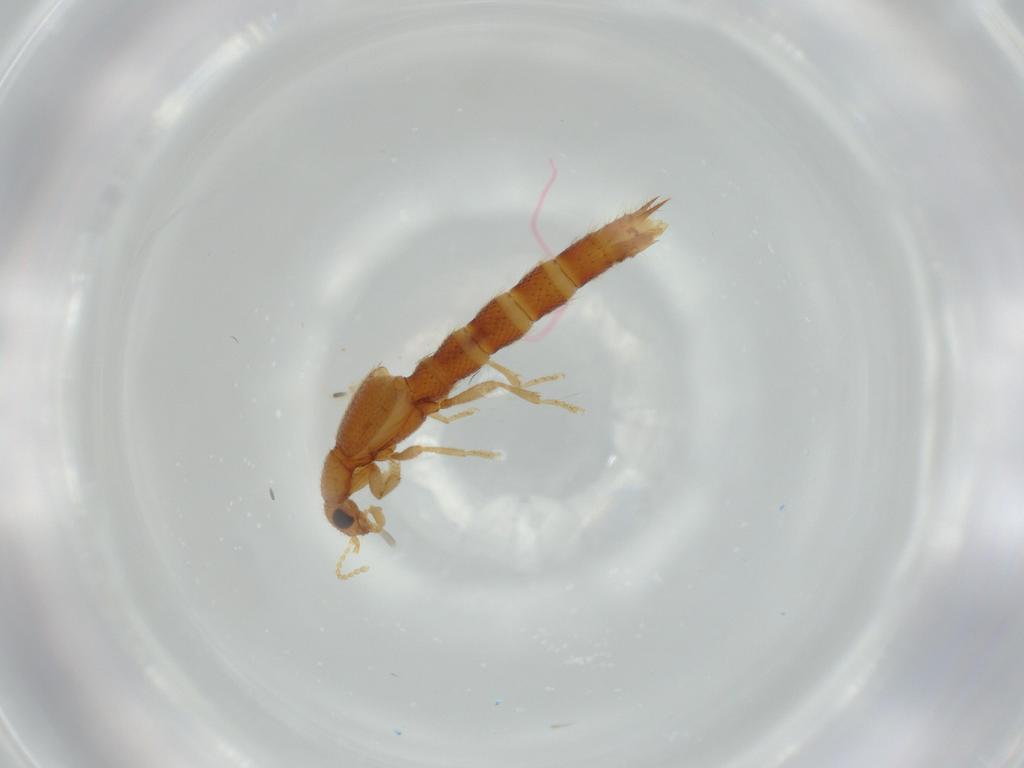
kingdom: Animalia
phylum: Arthropoda
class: Insecta
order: Coleoptera
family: Staphylinidae
